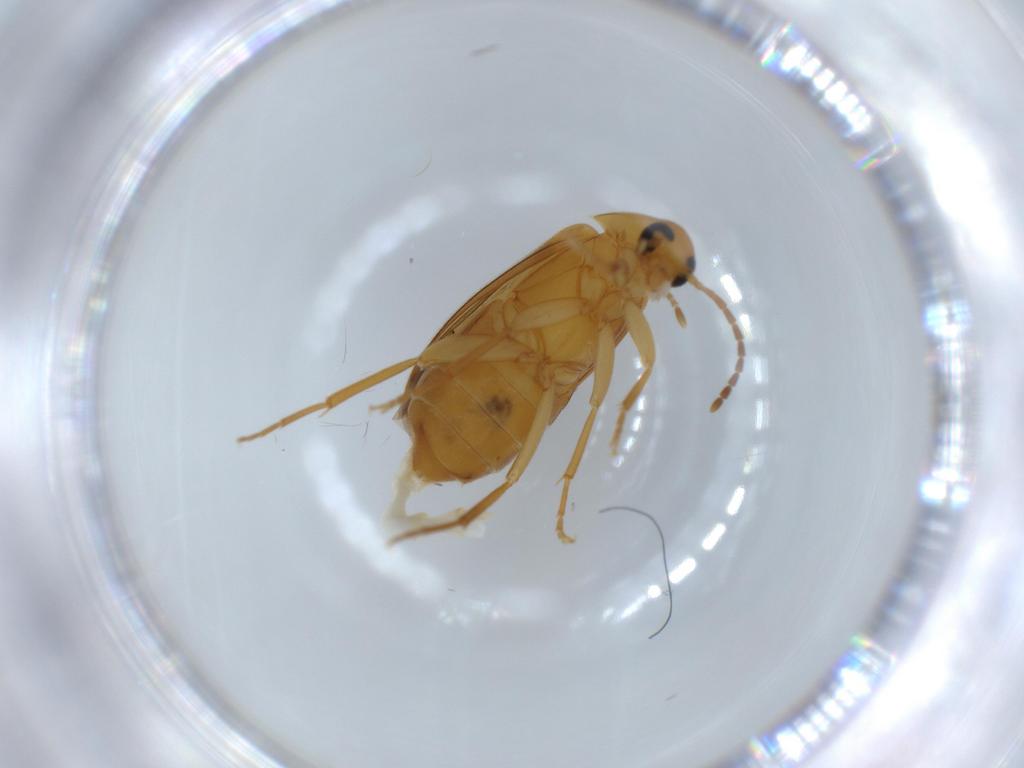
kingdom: Animalia
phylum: Arthropoda
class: Insecta
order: Coleoptera
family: Scraptiidae
